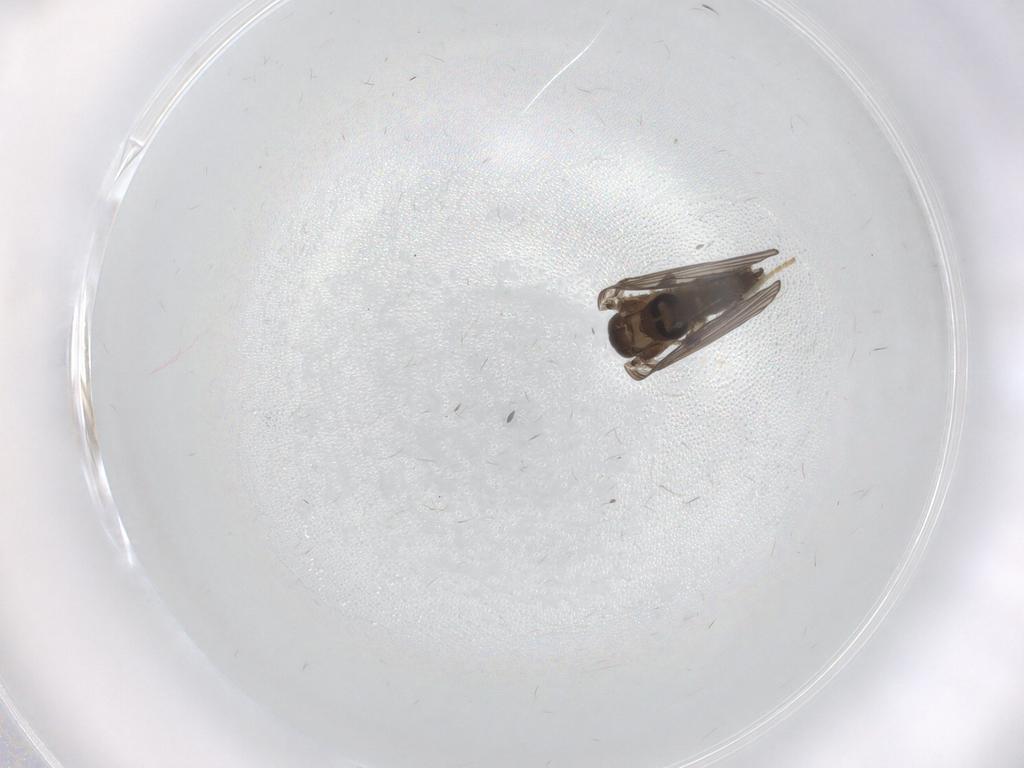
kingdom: Animalia
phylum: Arthropoda
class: Insecta
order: Diptera
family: Psychodidae
